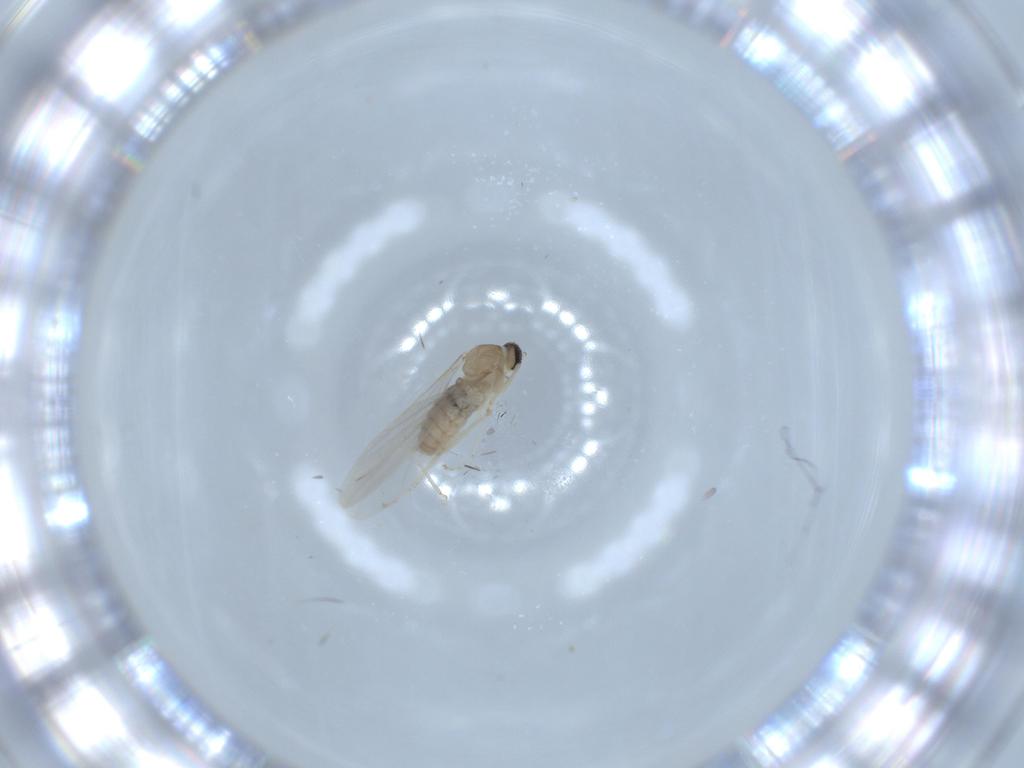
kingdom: Animalia
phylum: Arthropoda
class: Insecta
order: Diptera
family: Cecidomyiidae
